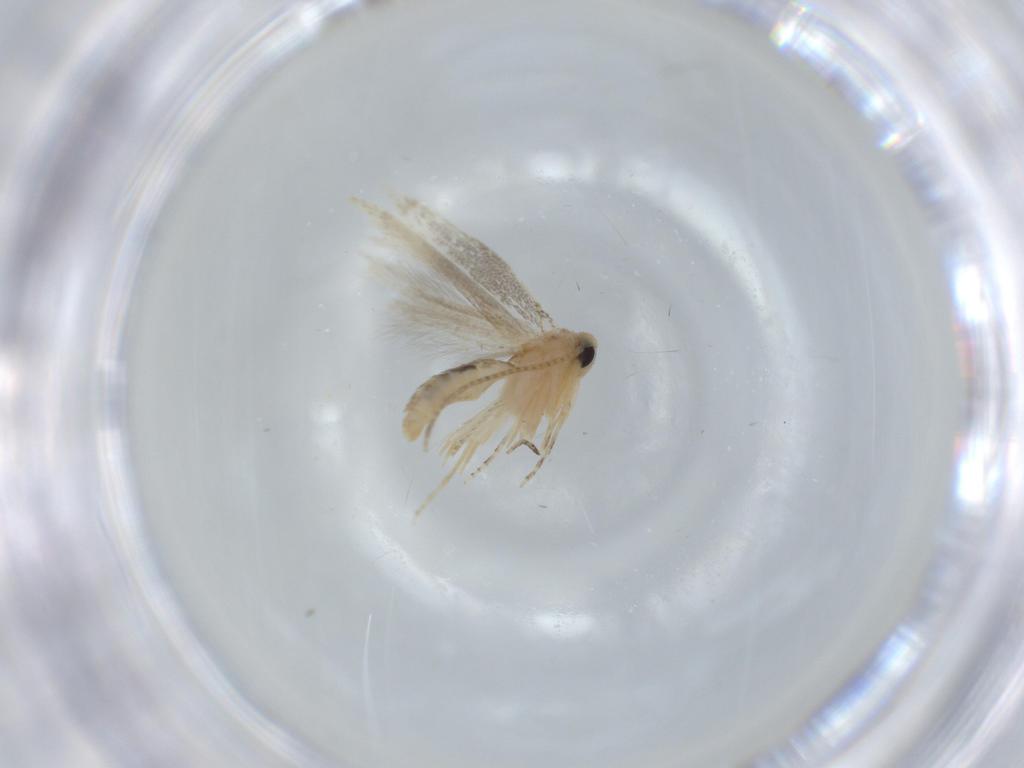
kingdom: Animalia
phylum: Arthropoda
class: Insecta
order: Lepidoptera
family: Bucculatricidae
